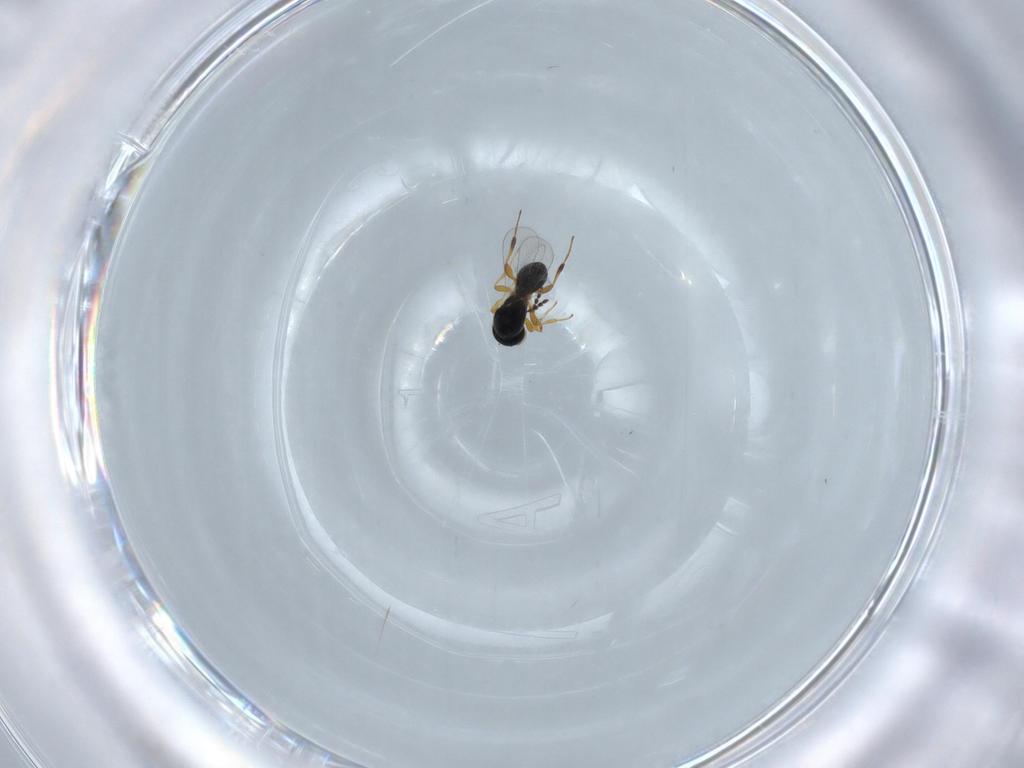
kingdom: Animalia
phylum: Arthropoda
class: Insecta
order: Hymenoptera
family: Platygastridae
